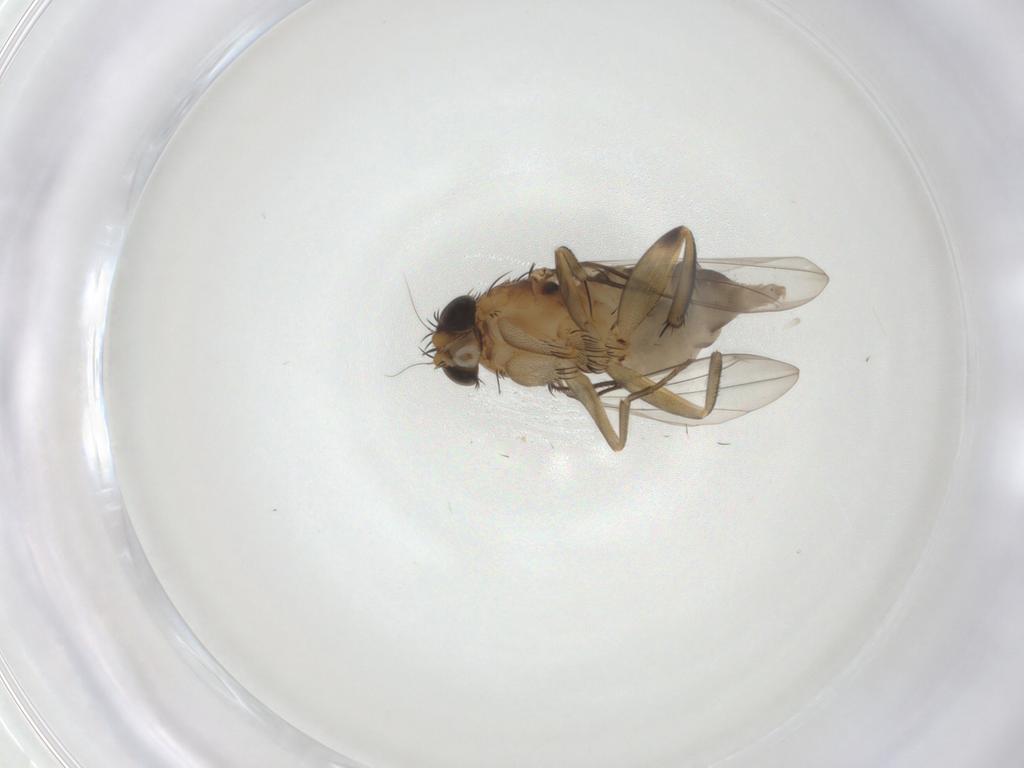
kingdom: Animalia
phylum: Arthropoda
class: Insecta
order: Diptera
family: Phoridae
